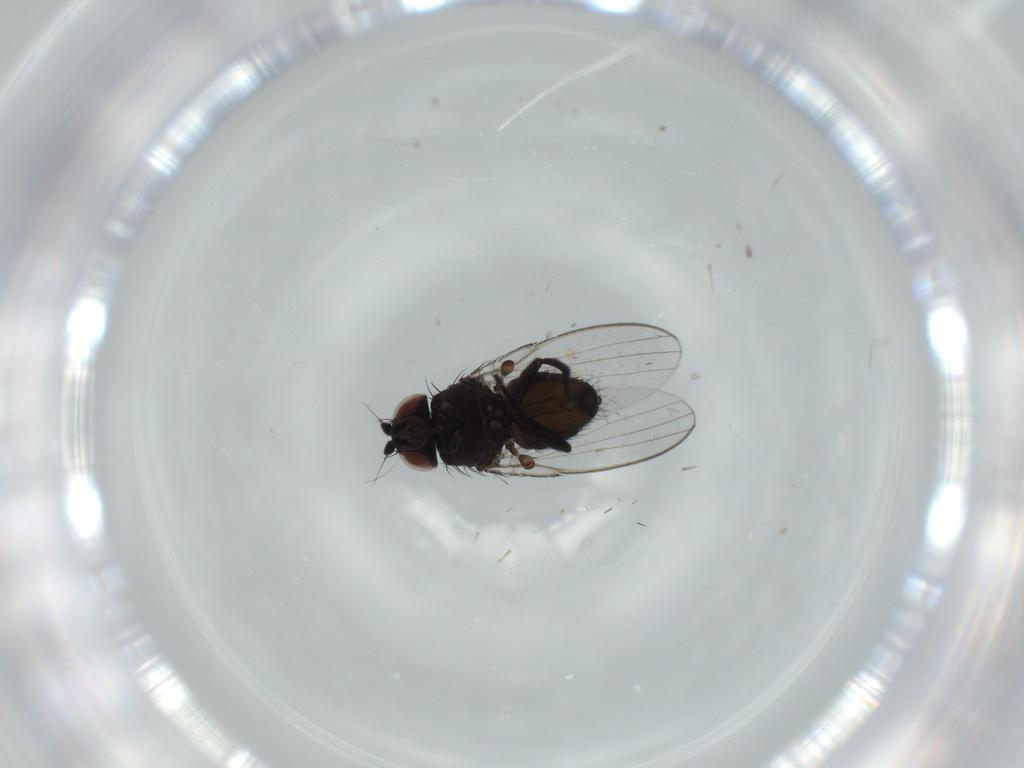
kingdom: Animalia
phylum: Arthropoda
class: Insecta
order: Diptera
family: Milichiidae
